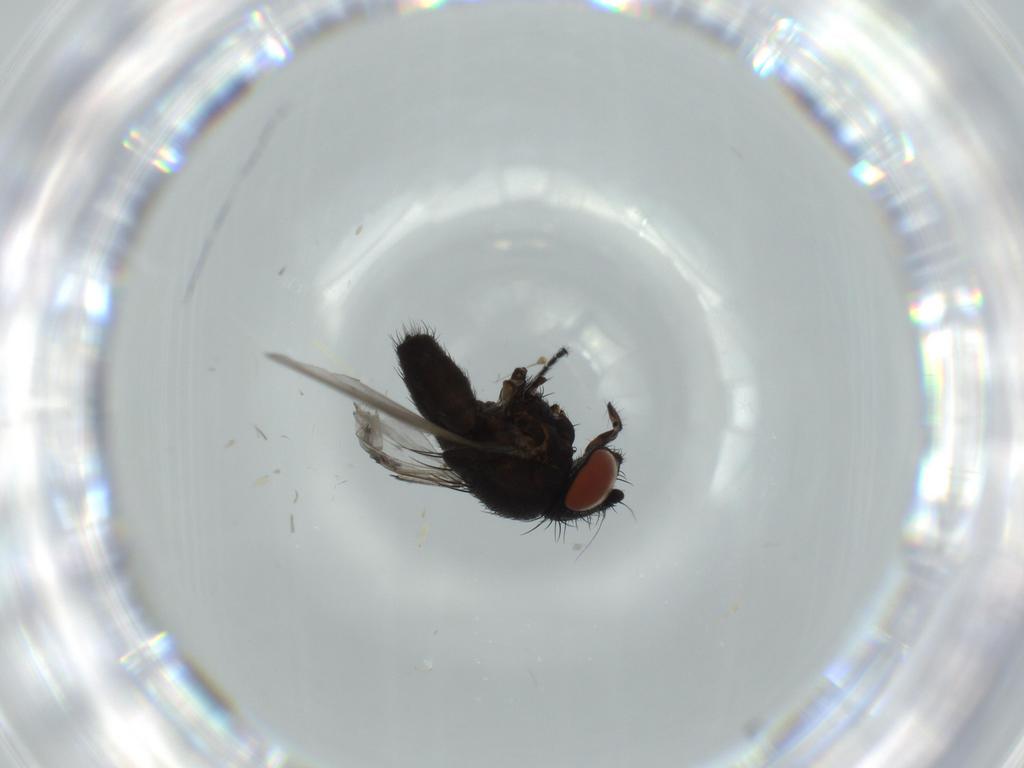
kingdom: Animalia
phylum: Arthropoda
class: Insecta
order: Diptera
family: Milichiidae
